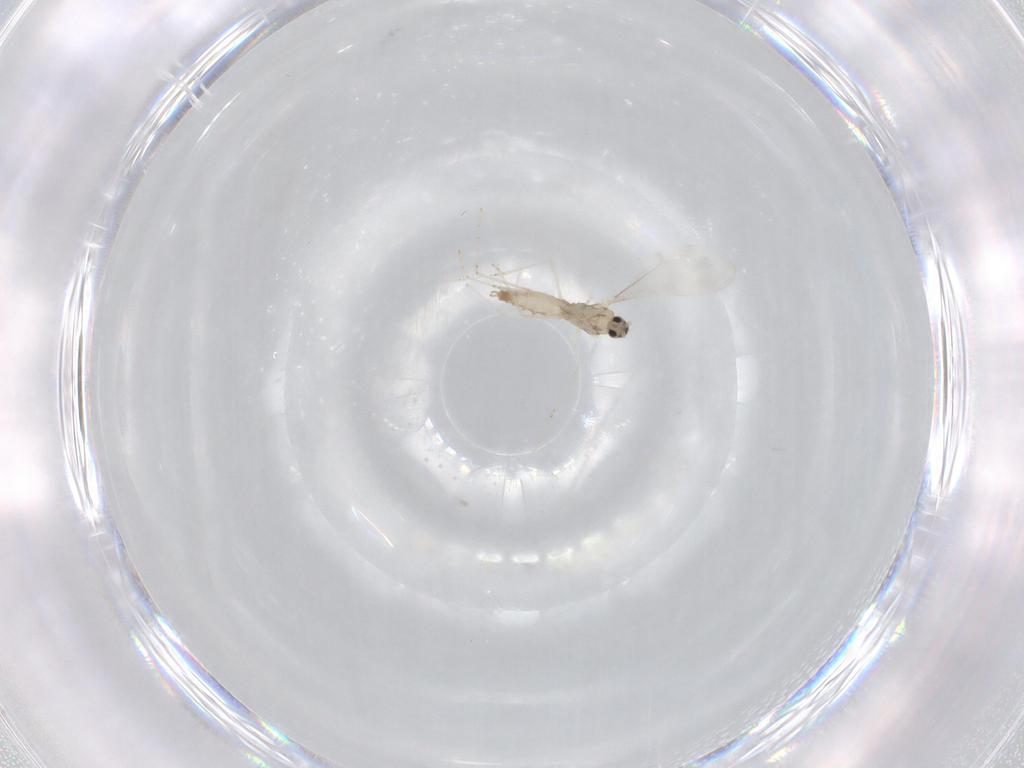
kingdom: Animalia
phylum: Arthropoda
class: Insecta
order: Diptera
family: Cecidomyiidae
